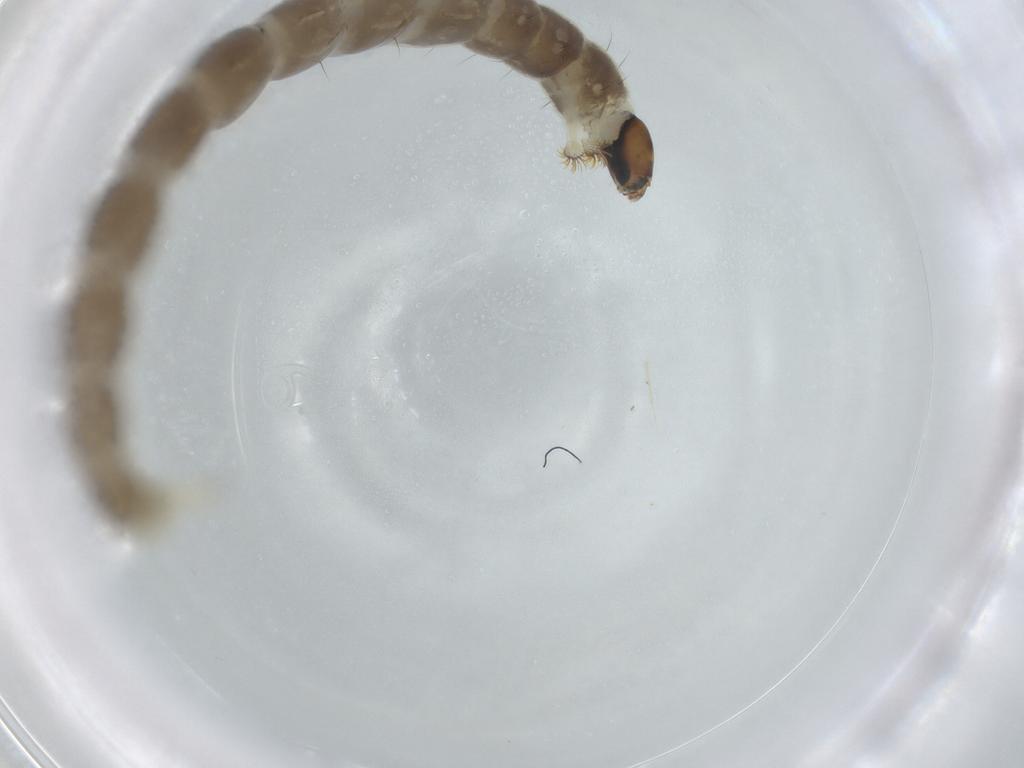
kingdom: Animalia
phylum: Arthropoda
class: Insecta
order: Diptera
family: Chironomidae
